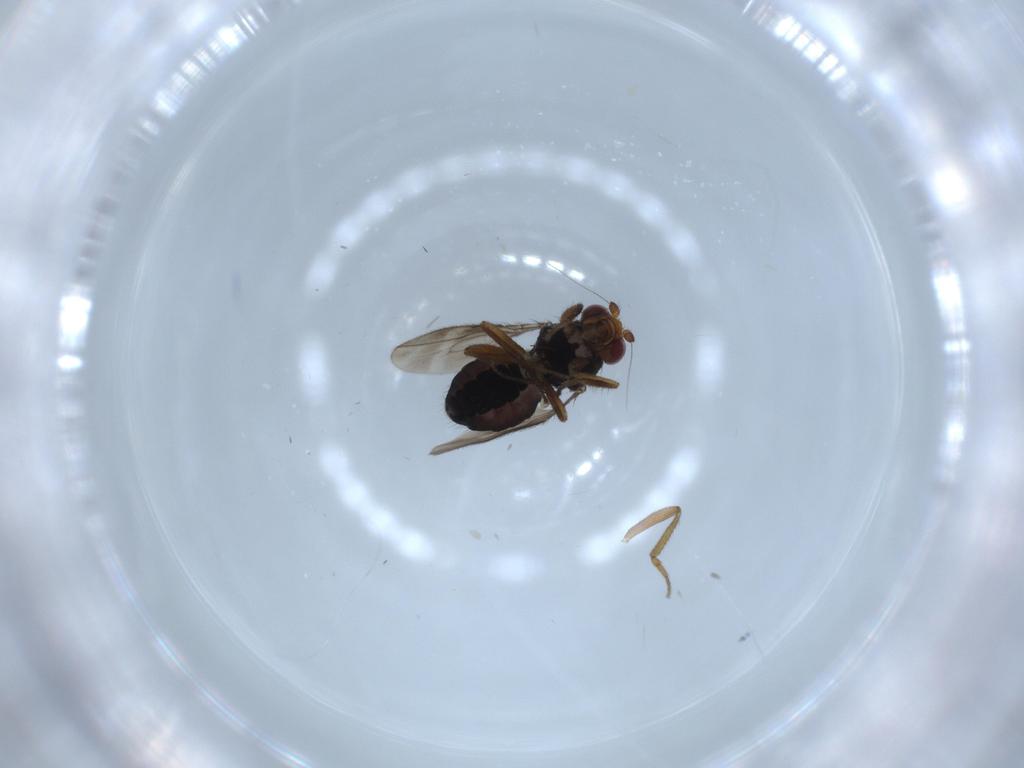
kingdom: Animalia
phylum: Arthropoda
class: Insecta
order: Diptera
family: Sphaeroceridae
